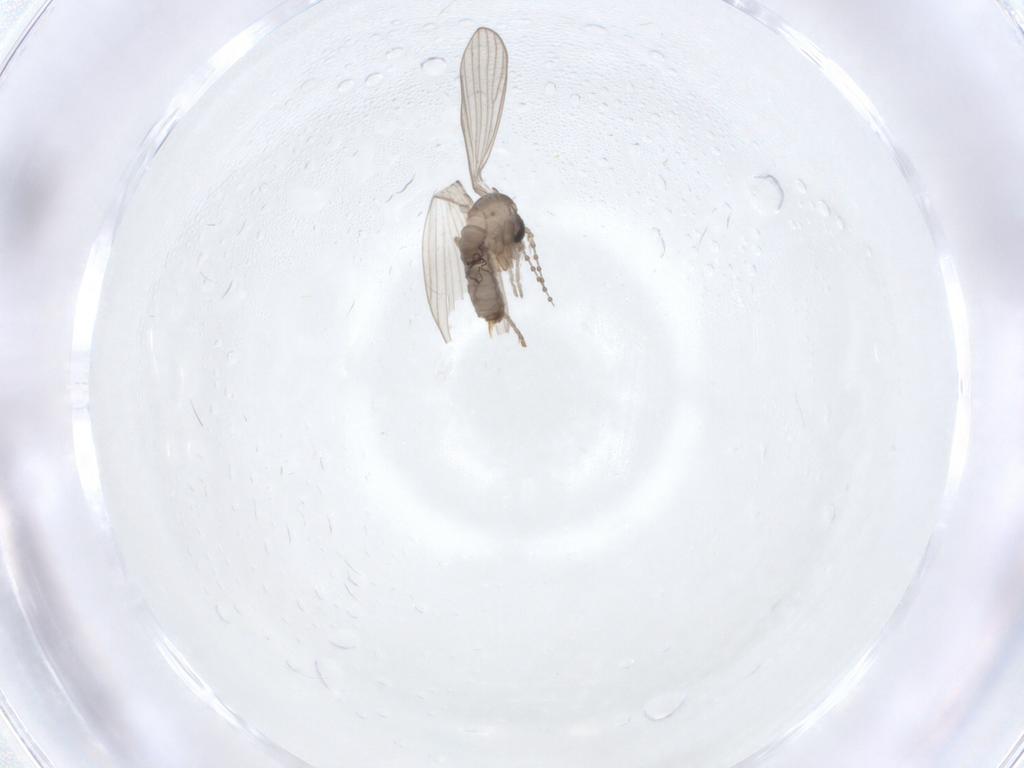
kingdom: Animalia
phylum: Arthropoda
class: Insecta
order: Diptera
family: Psychodidae
